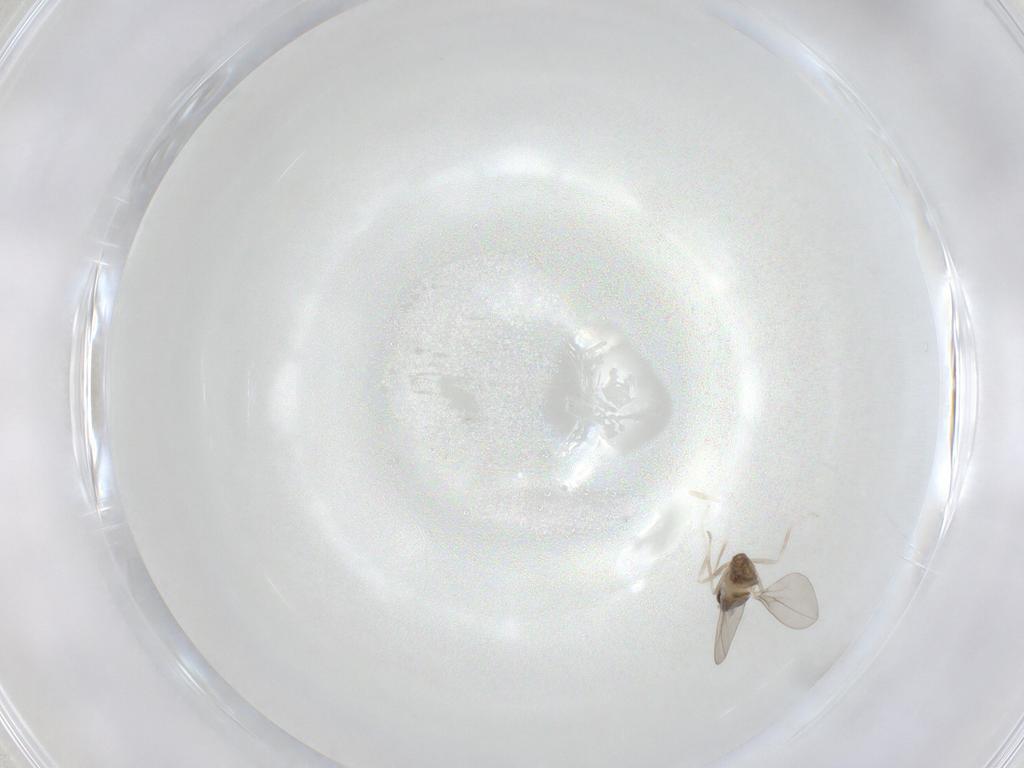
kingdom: Animalia
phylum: Arthropoda
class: Insecta
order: Diptera
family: Cecidomyiidae
